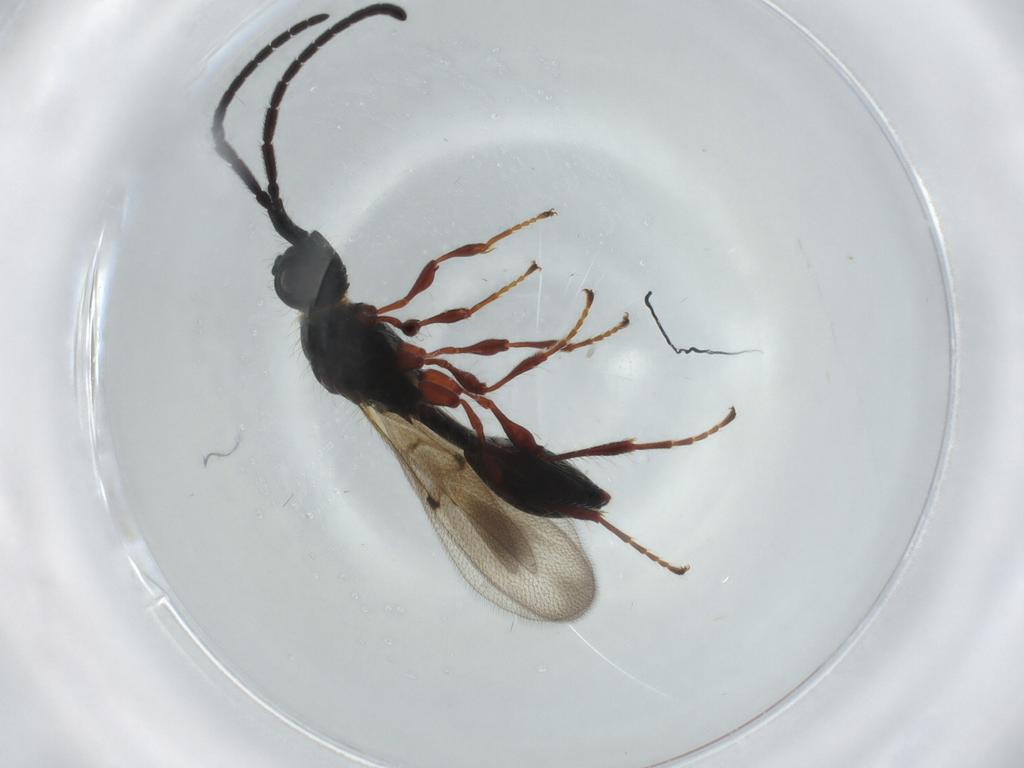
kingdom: Animalia
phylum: Arthropoda
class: Insecta
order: Hymenoptera
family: Diapriidae
